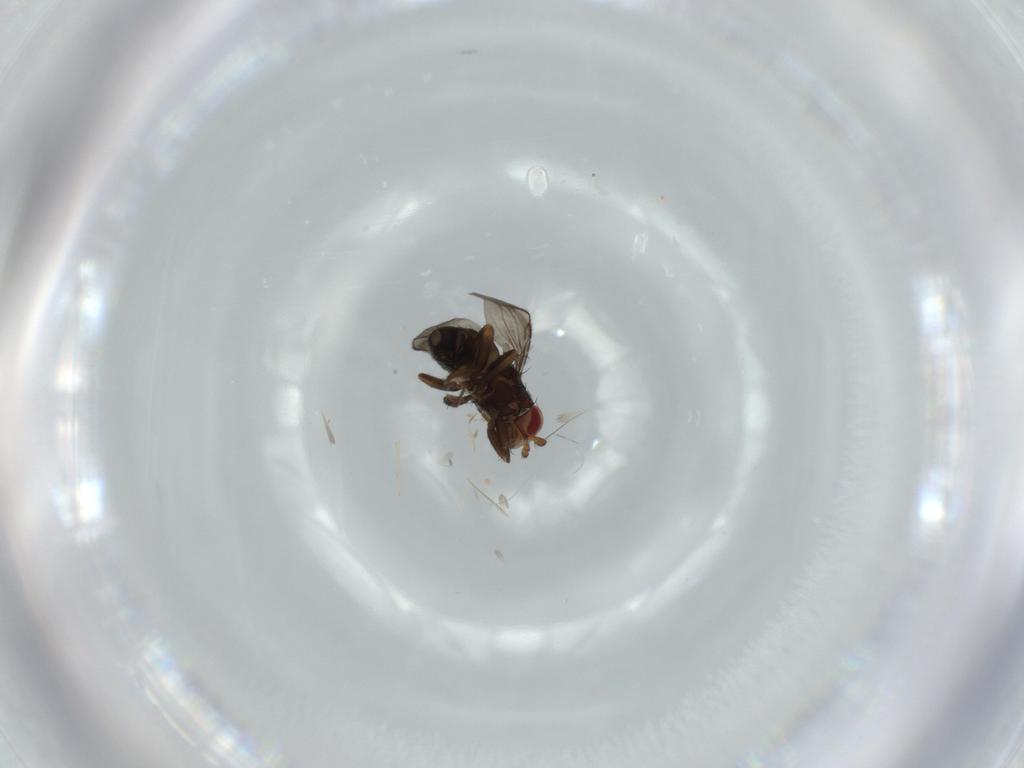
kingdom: Animalia
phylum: Arthropoda
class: Insecta
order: Diptera
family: Sphaeroceridae
